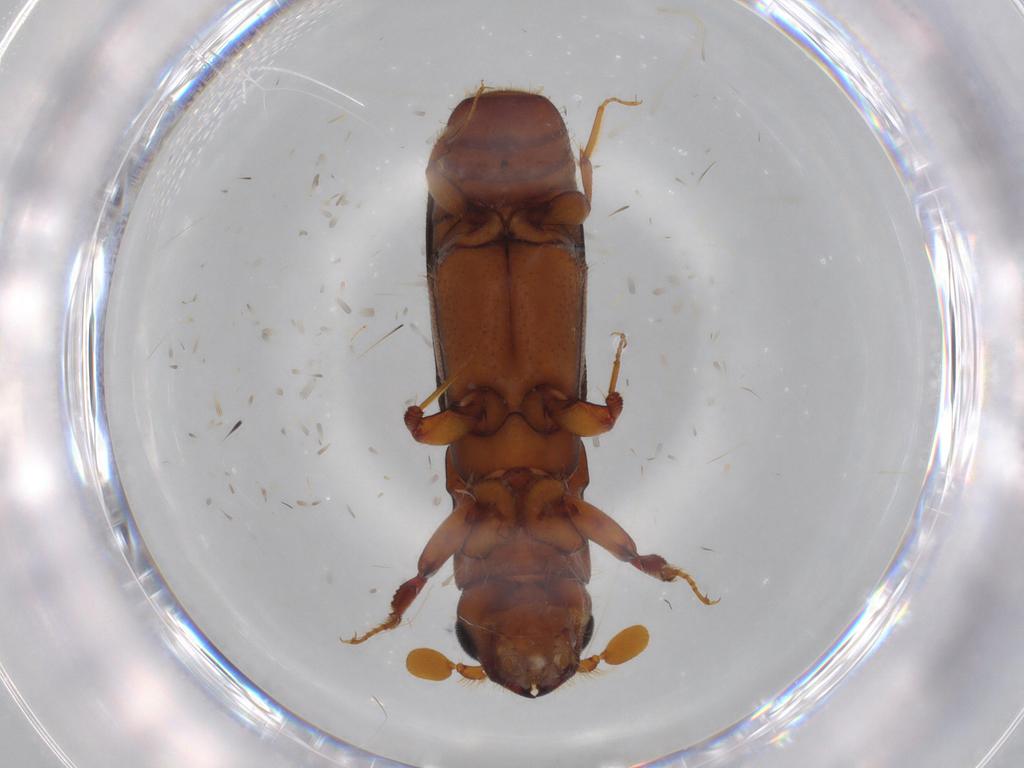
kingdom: Animalia
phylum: Arthropoda
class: Insecta
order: Coleoptera
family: Curculionidae
